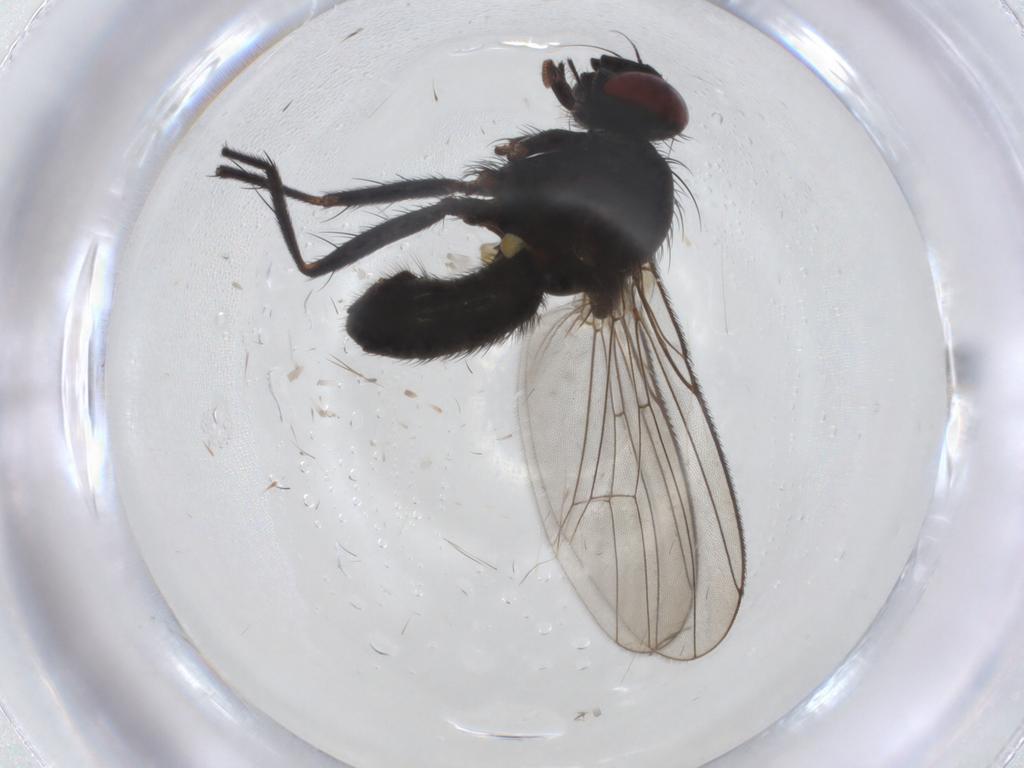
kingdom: Animalia
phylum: Arthropoda
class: Insecta
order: Diptera
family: Muscidae
